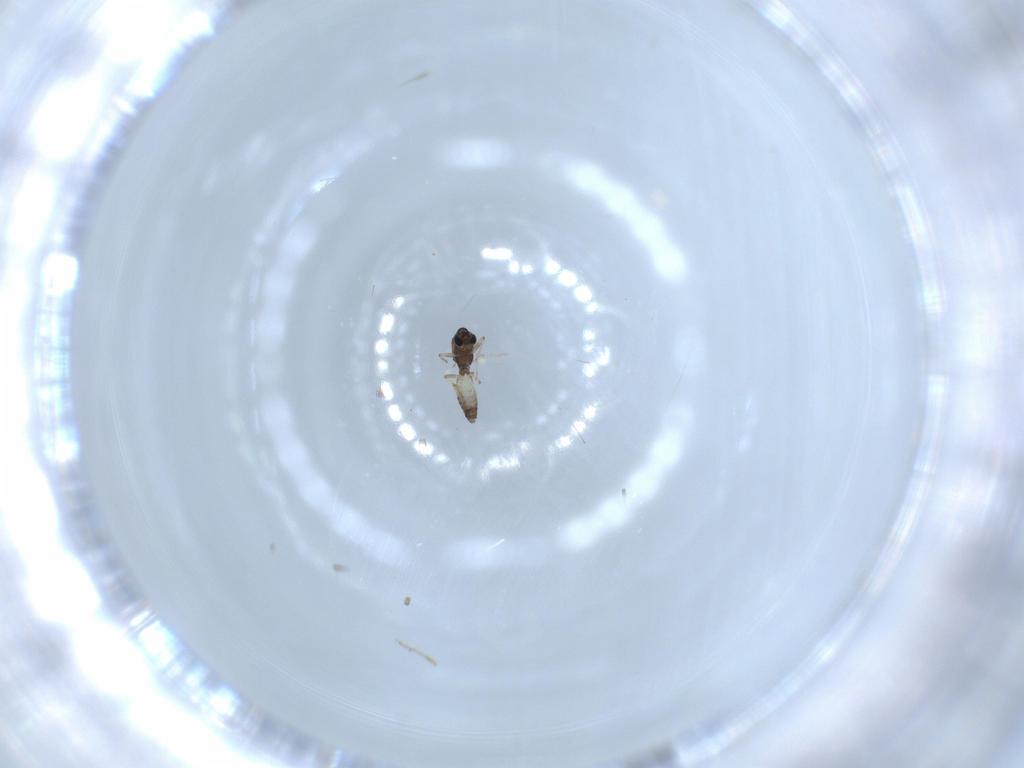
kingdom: Animalia
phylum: Arthropoda
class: Insecta
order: Diptera
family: Chironomidae
